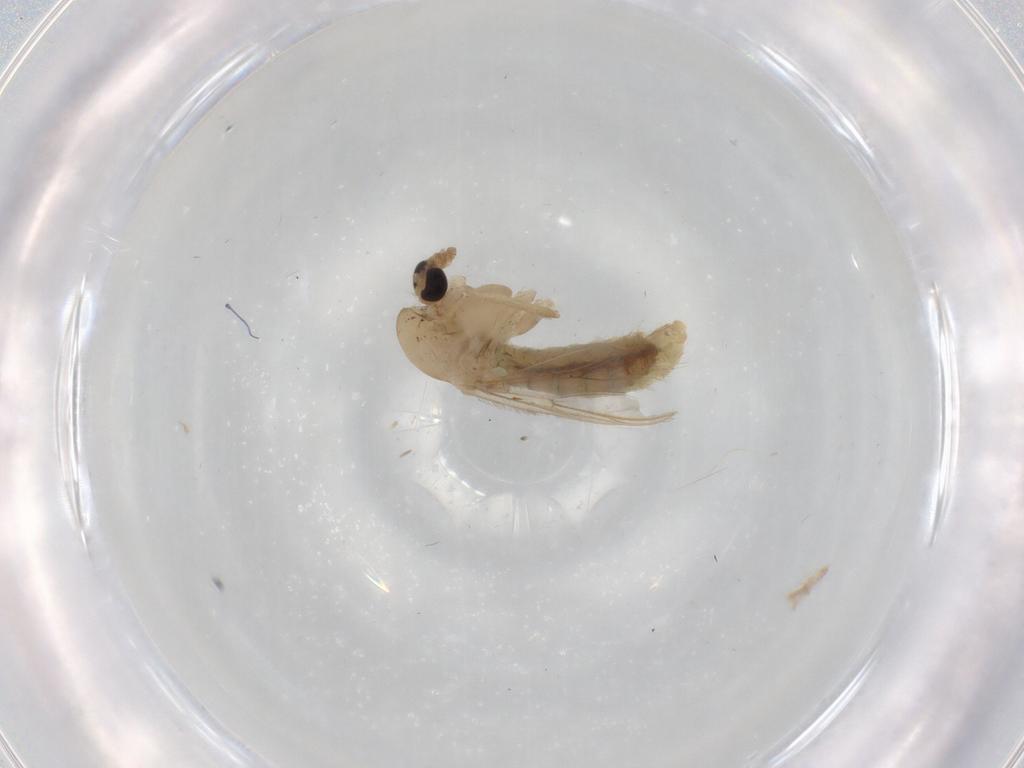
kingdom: Animalia
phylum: Arthropoda
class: Insecta
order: Diptera
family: Chironomidae
